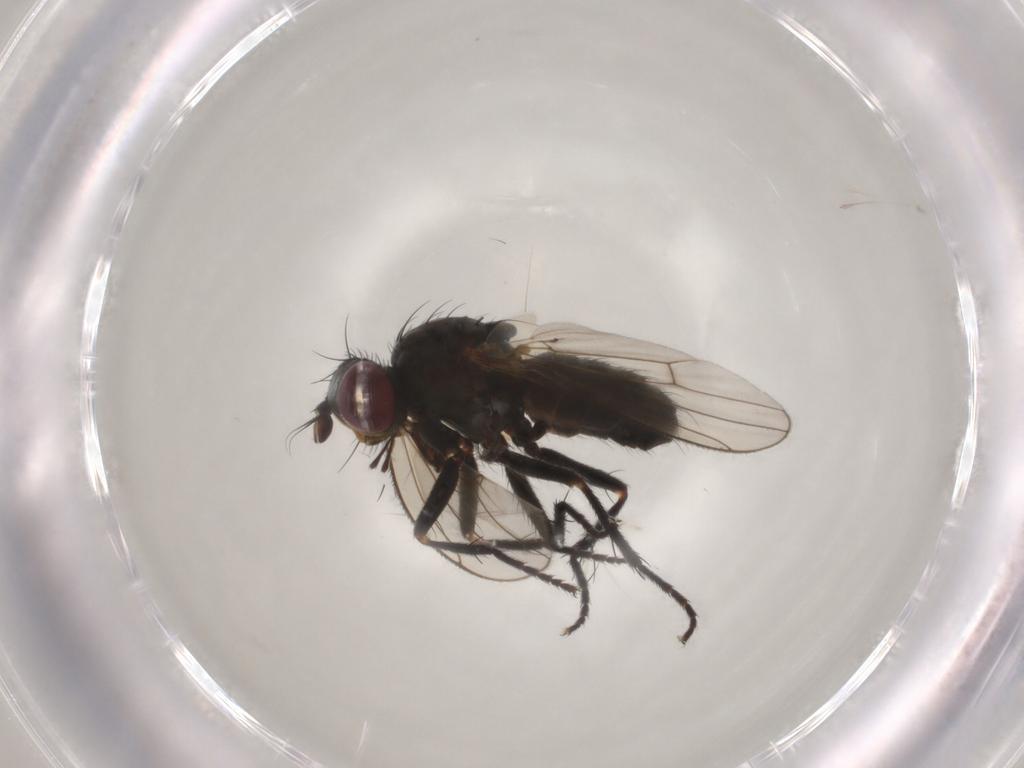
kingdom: Animalia
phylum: Arthropoda
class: Insecta
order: Diptera
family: Muscidae
